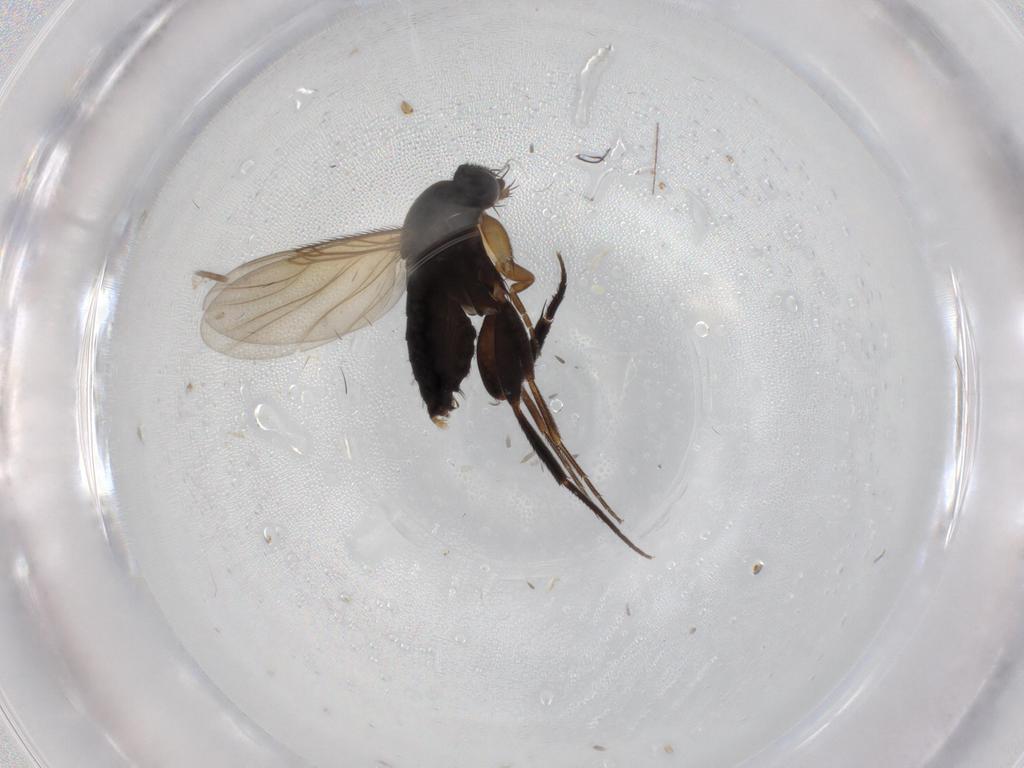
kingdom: Animalia
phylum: Arthropoda
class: Insecta
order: Diptera
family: Phoridae
